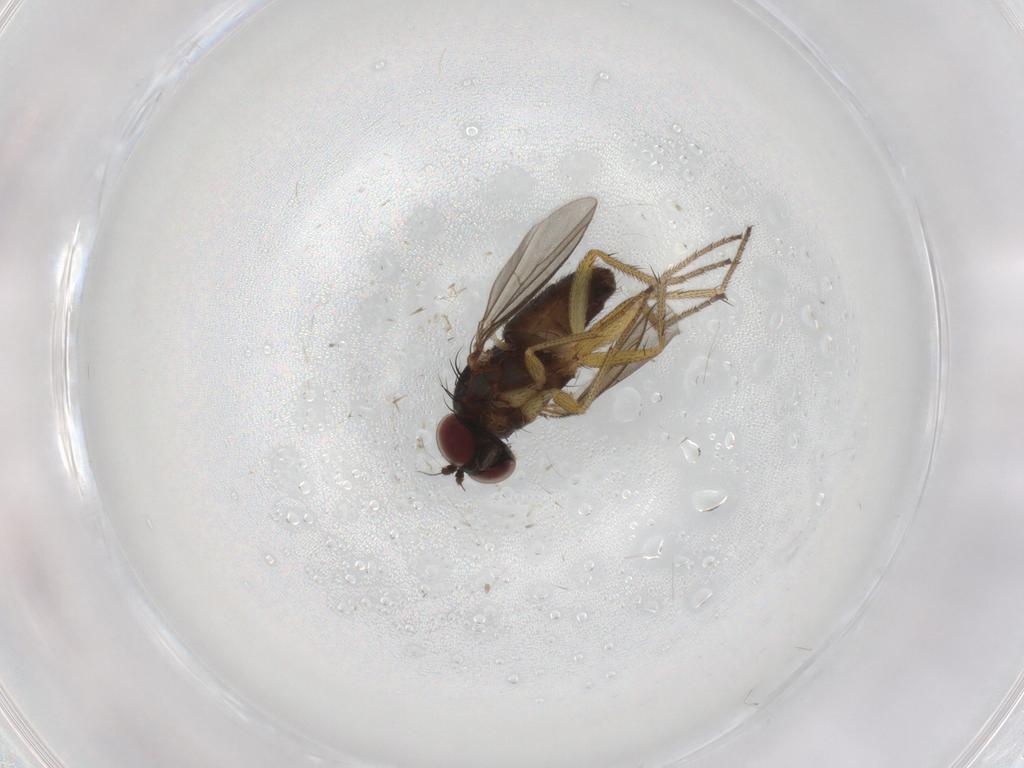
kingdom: Animalia
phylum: Arthropoda
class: Insecta
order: Diptera
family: Chironomidae
